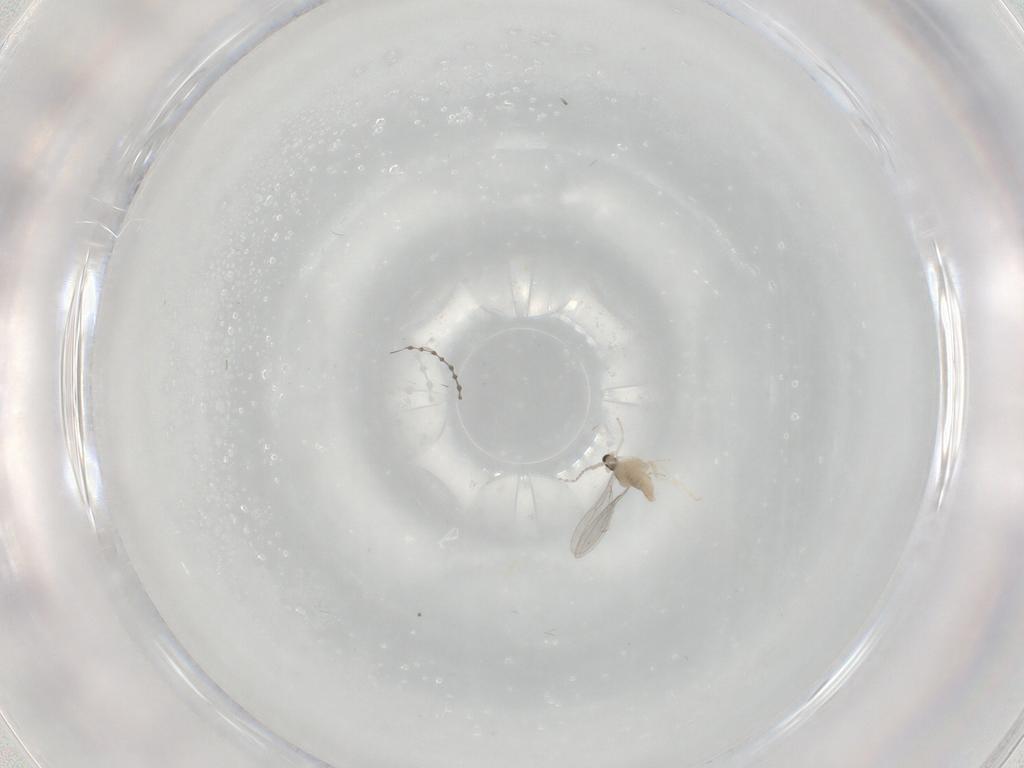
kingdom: Animalia
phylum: Arthropoda
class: Insecta
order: Diptera
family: Cecidomyiidae
